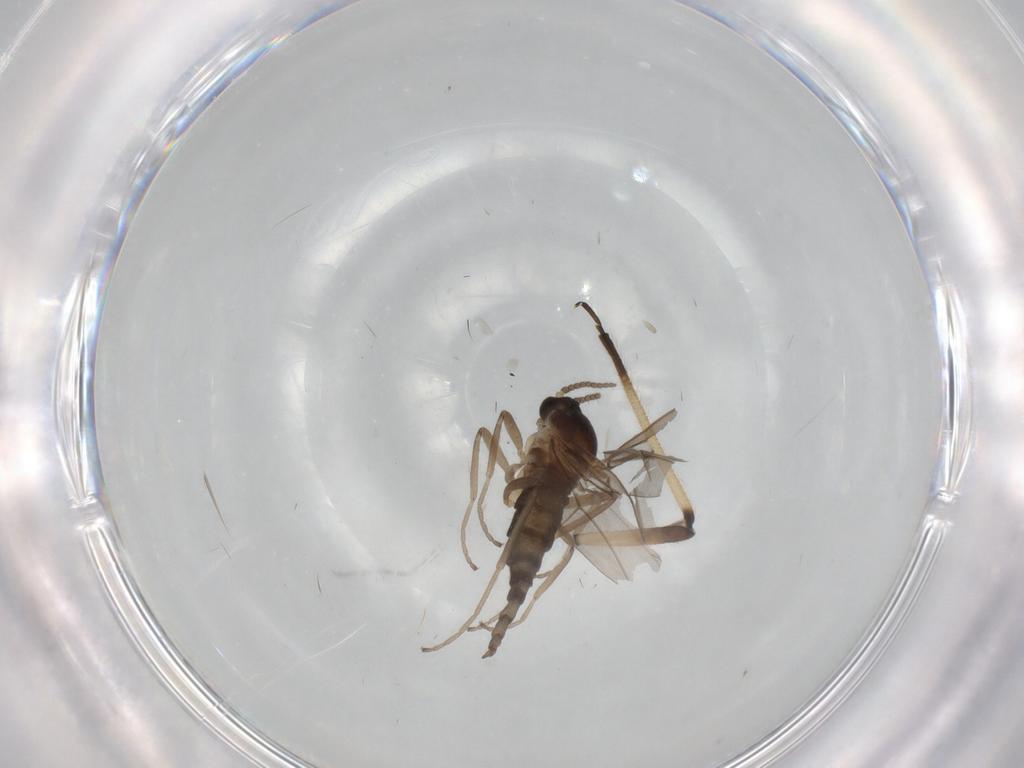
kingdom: Animalia
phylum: Arthropoda
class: Insecta
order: Diptera
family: Cecidomyiidae
